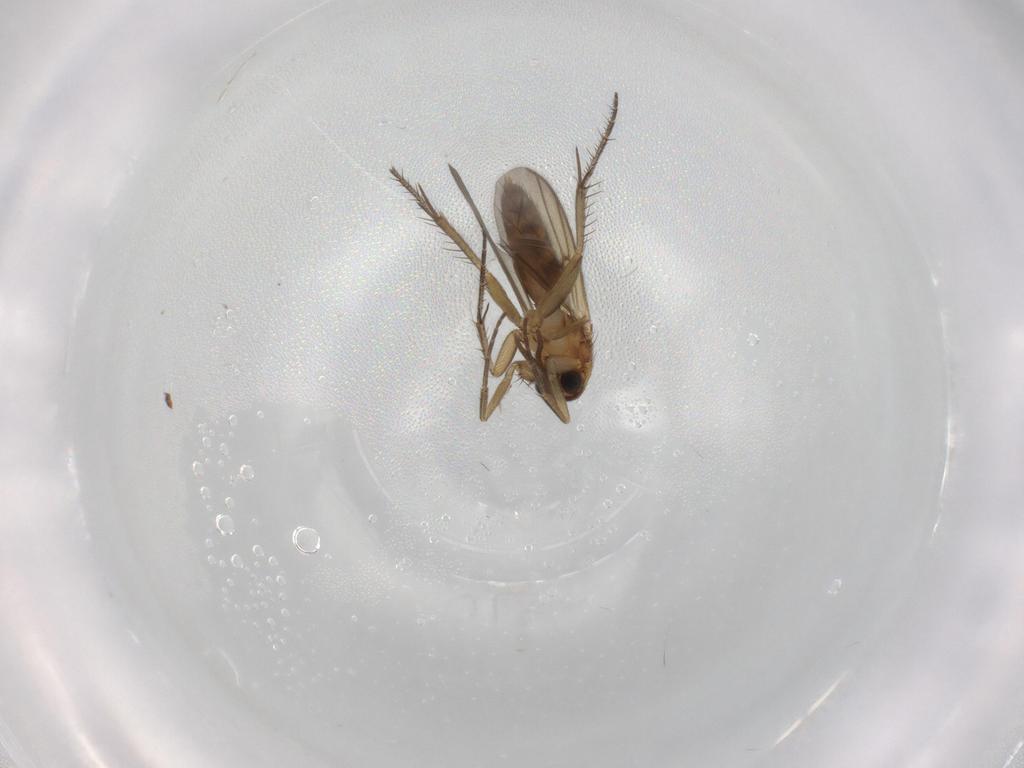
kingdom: Animalia
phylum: Arthropoda
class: Insecta
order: Diptera
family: Cecidomyiidae
